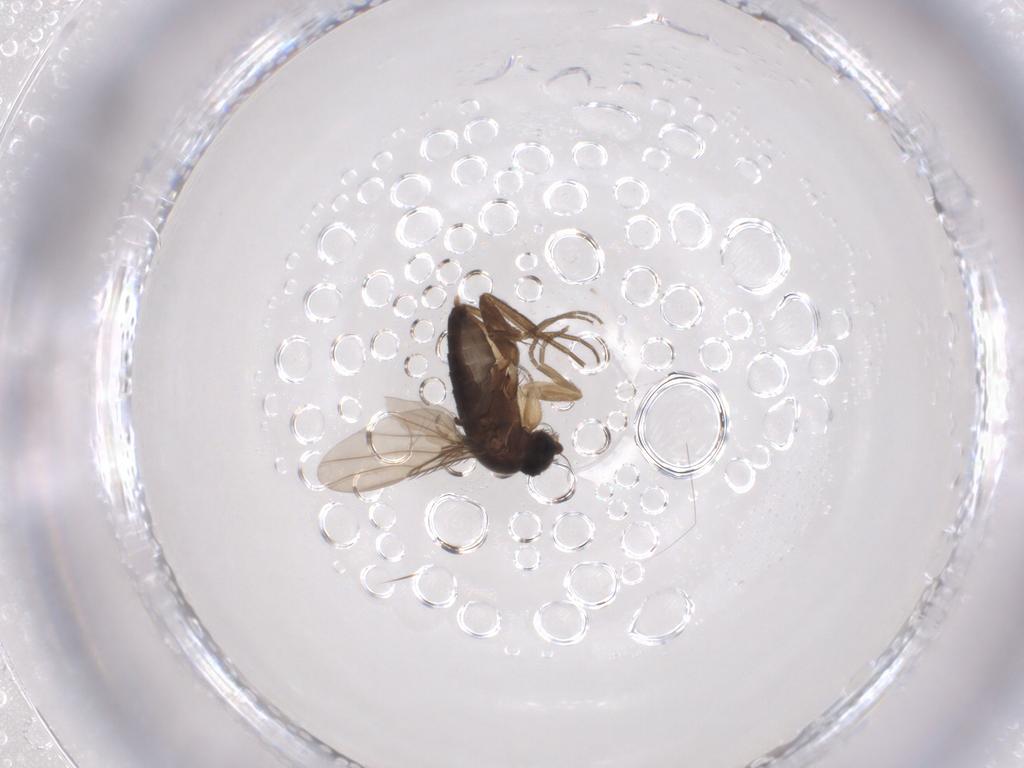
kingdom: Animalia
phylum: Arthropoda
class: Insecta
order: Diptera
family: Phoridae
